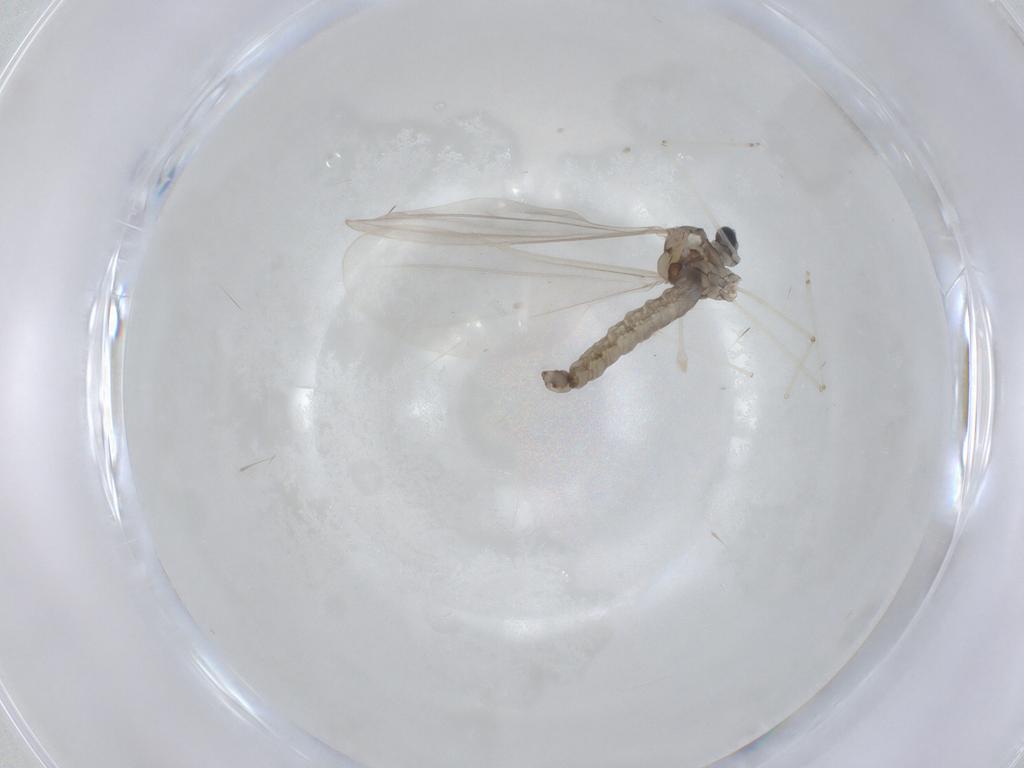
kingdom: Animalia
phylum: Arthropoda
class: Insecta
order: Diptera
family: Cecidomyiidae
